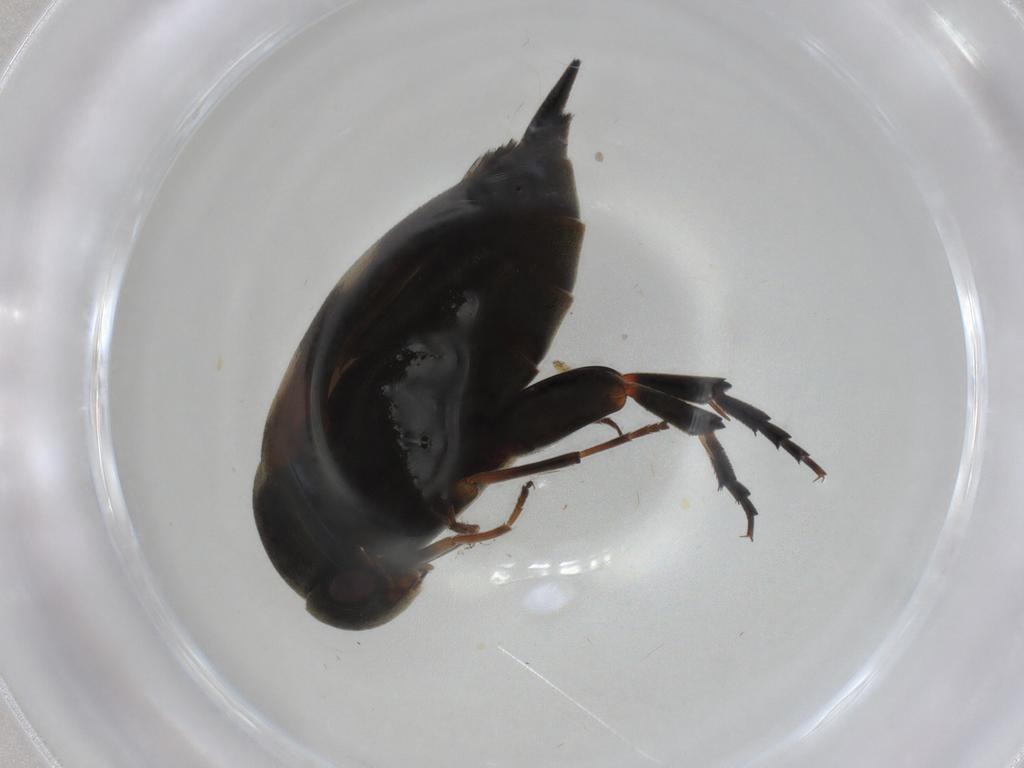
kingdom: Animalia
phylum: Arthropoda
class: Insecta
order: Coleoptera
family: Mordellidae
